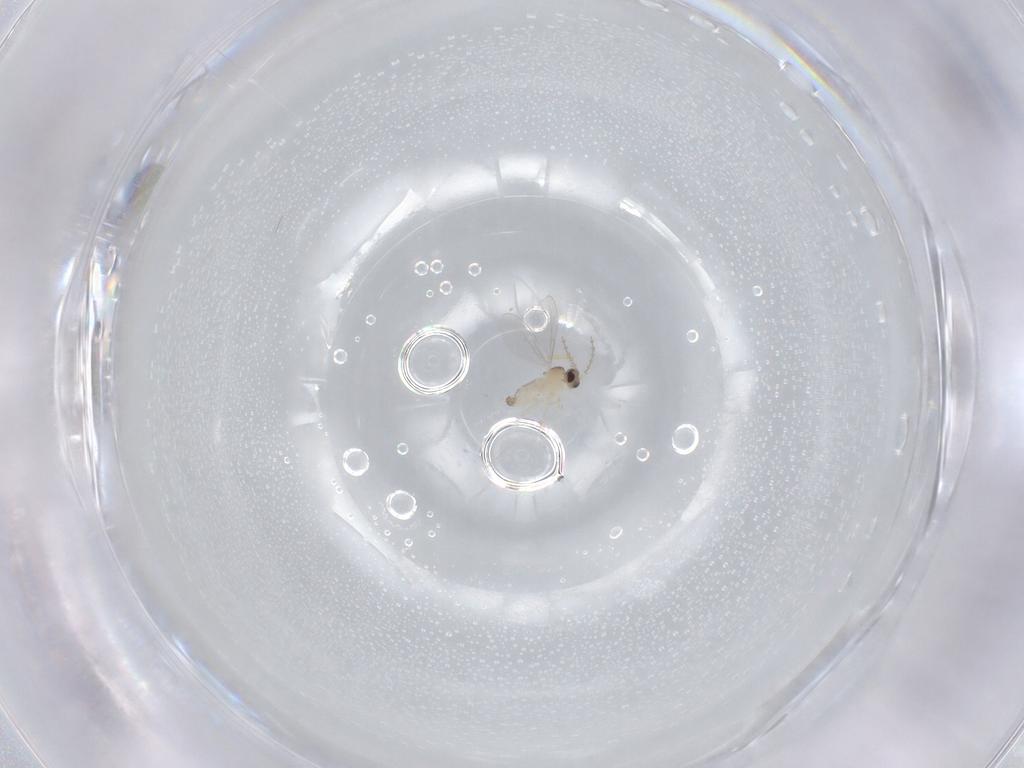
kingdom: Animalia
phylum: Arthropoda
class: Insecta
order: Diptera
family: Cecidomyiidae
